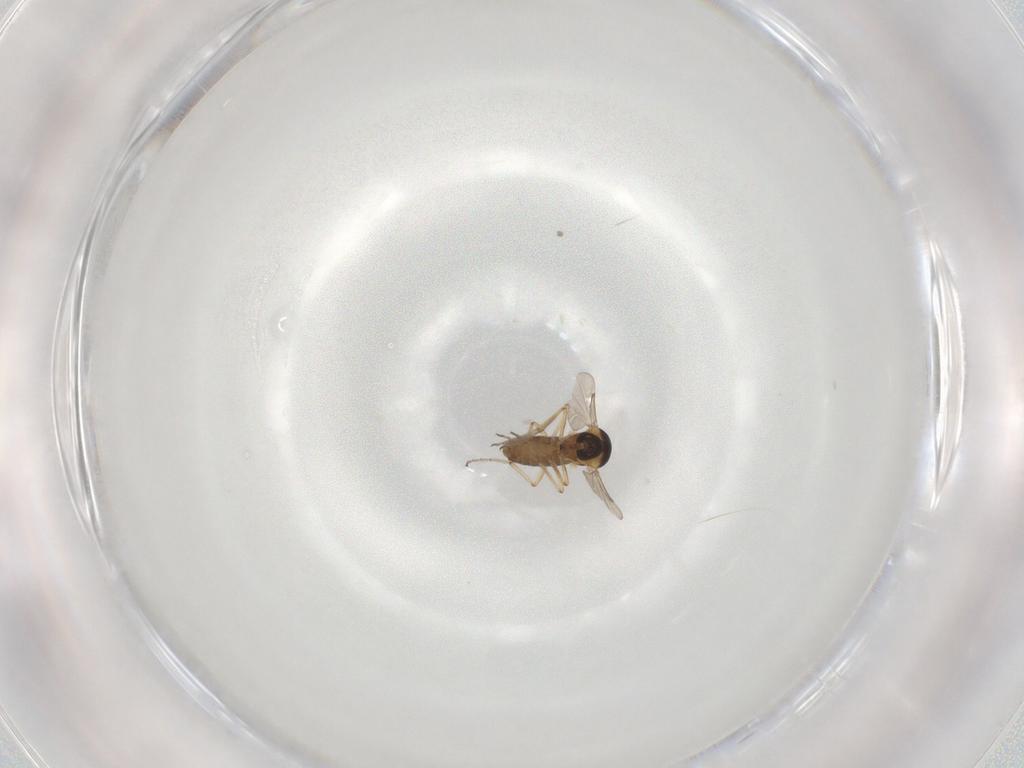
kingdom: Animalia
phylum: Arthropoda
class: Insecta
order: Diptera
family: Ceratopogonidae
